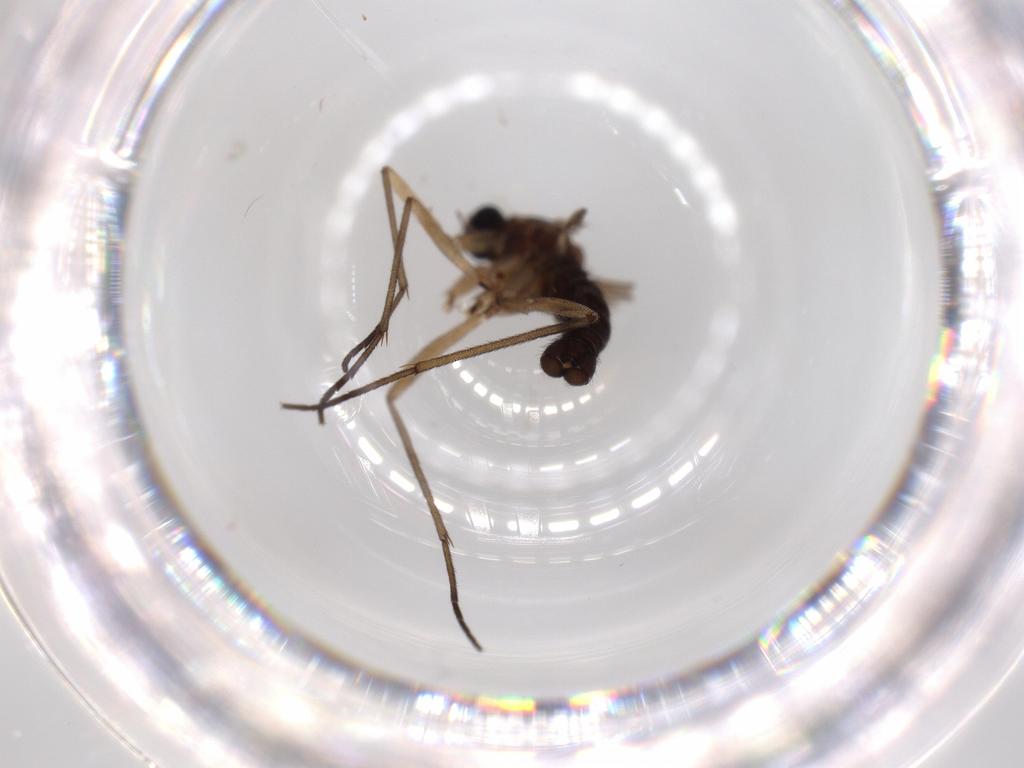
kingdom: Animalia
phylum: Arthropoda
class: Insecta
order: Diptera
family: Sciaridae
